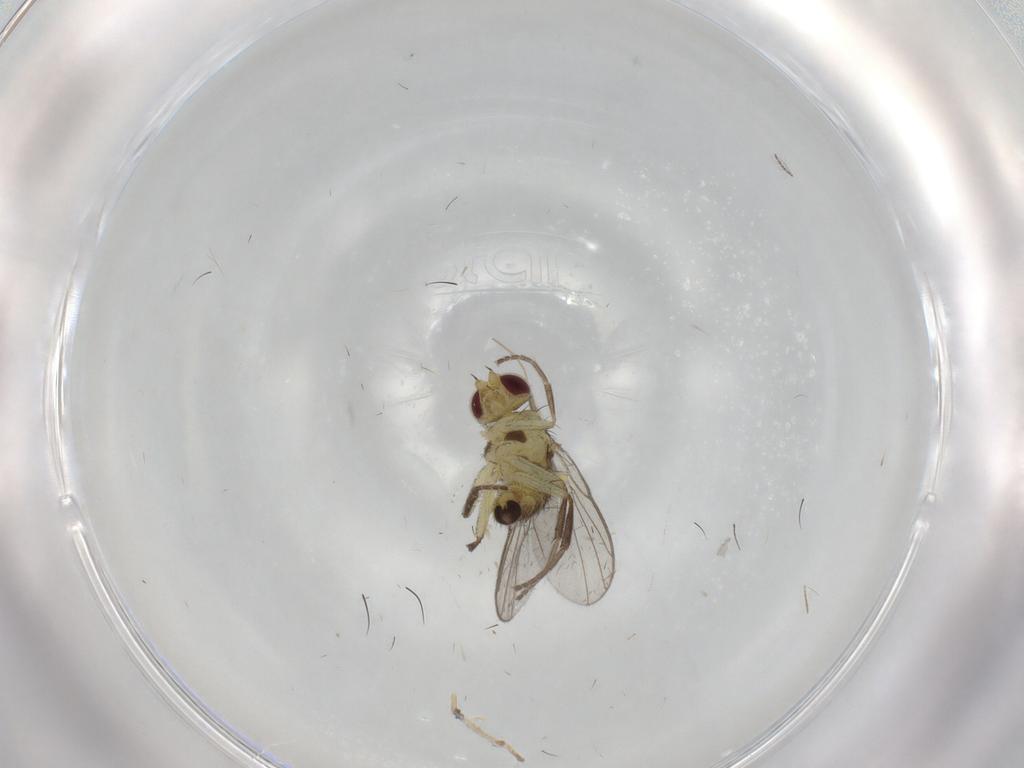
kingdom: Animalia
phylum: Arthropoda
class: Insecta
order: Diptera
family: Agromyzidae
